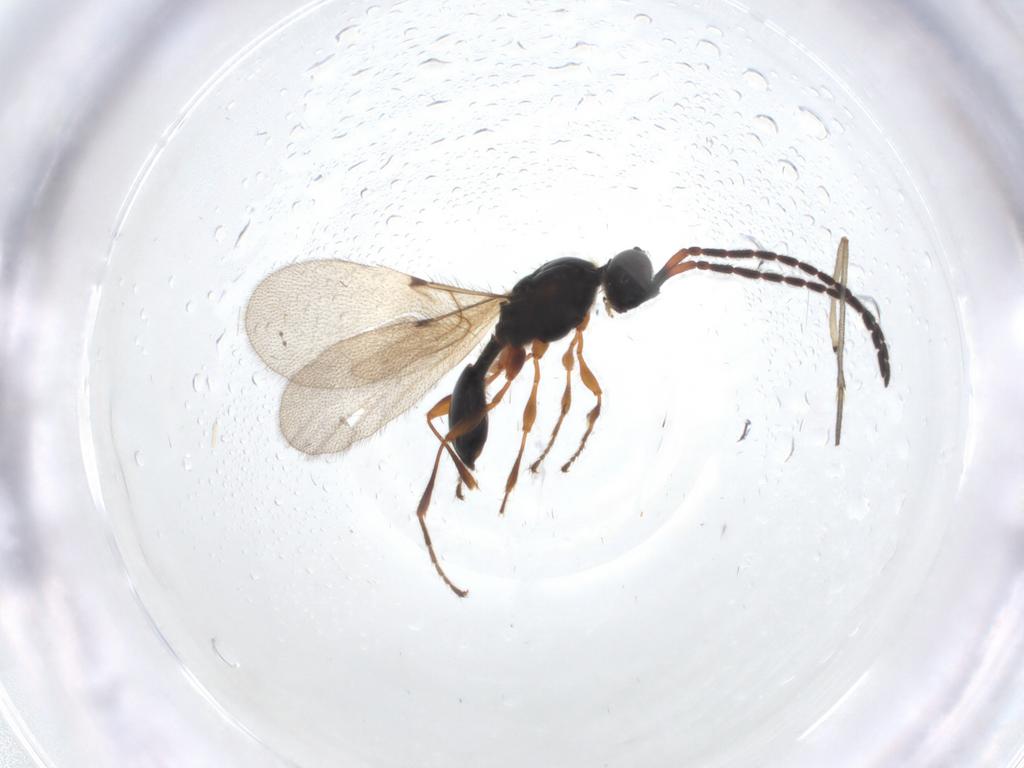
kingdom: Animalia
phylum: Arthropoda
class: Insecta
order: Hymenoptera
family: Diapriidae
